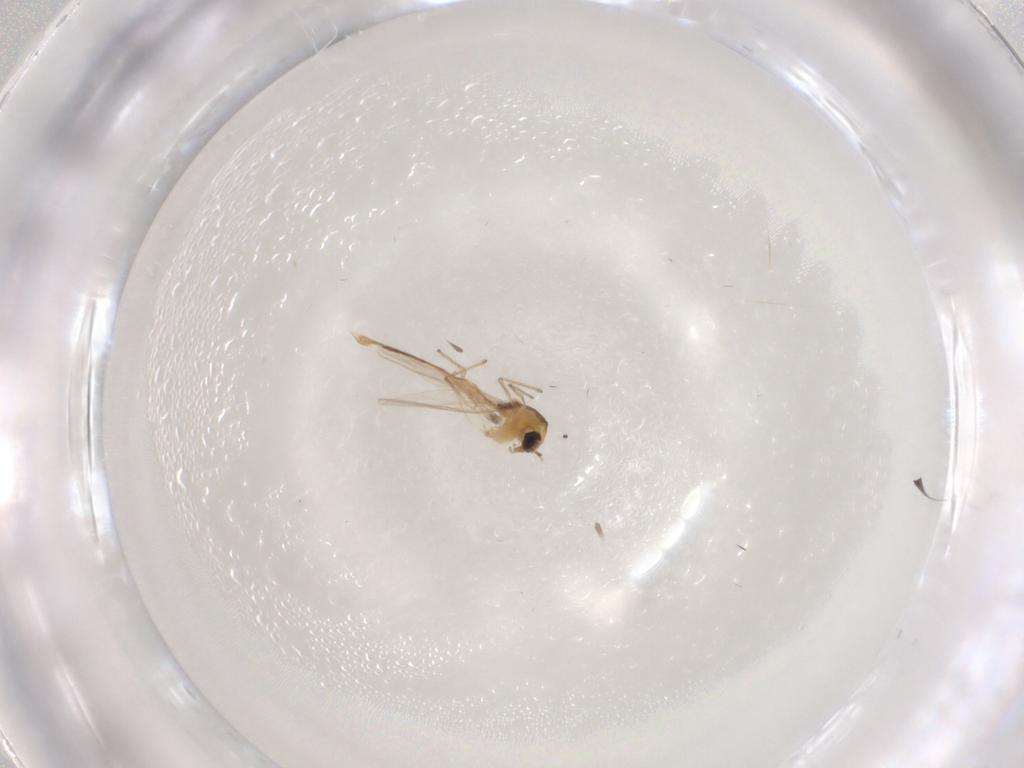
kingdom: Animalia
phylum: Arthropoda
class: Insecta
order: Diptera
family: Chironomidae
